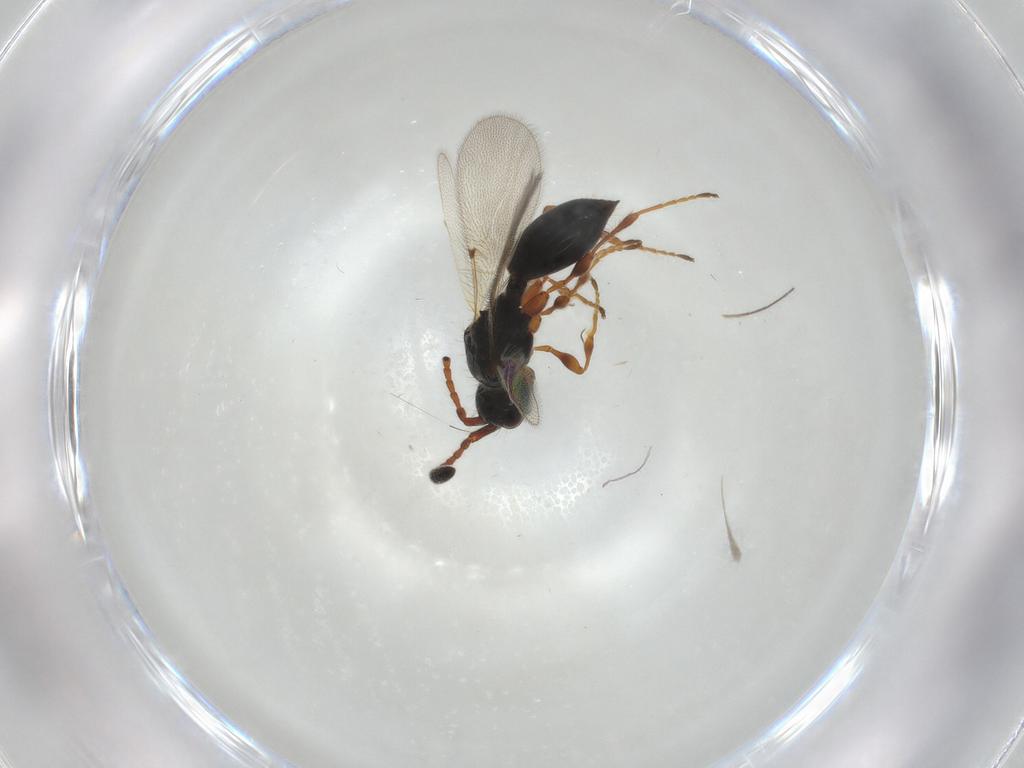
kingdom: Animalia
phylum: Arthropoda
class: Insecta
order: Hymenoptera
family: Diapriidae
